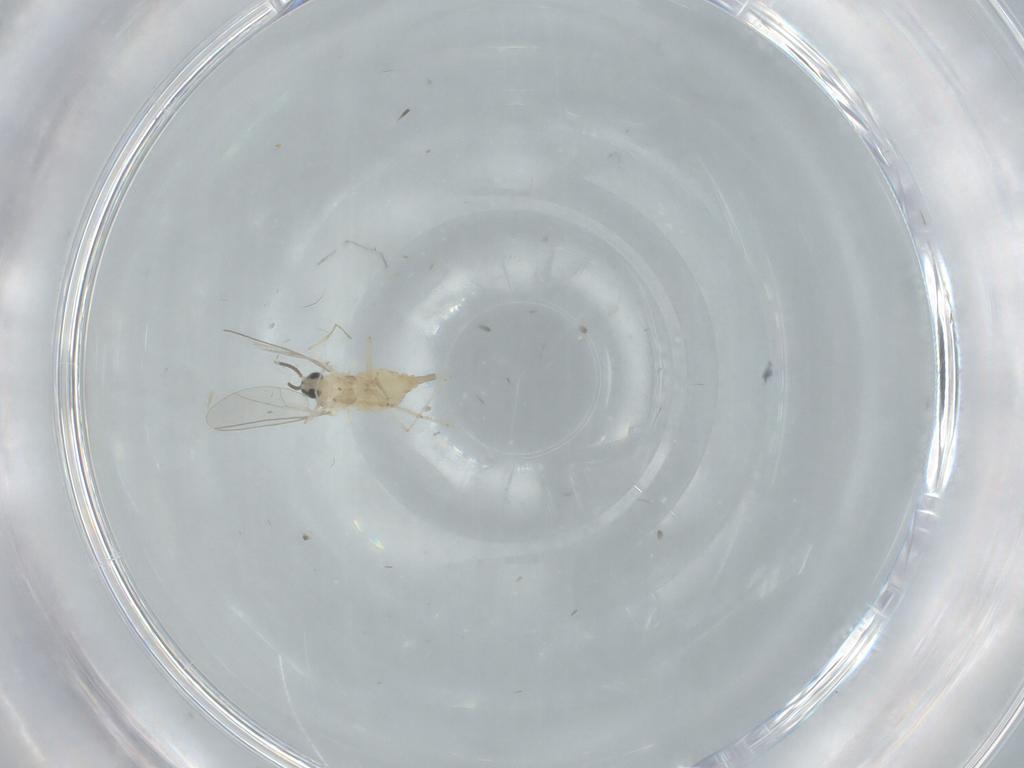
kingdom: Animalia
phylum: Arthropoda
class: Insecta
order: Diptera
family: Cecidomyiidae
